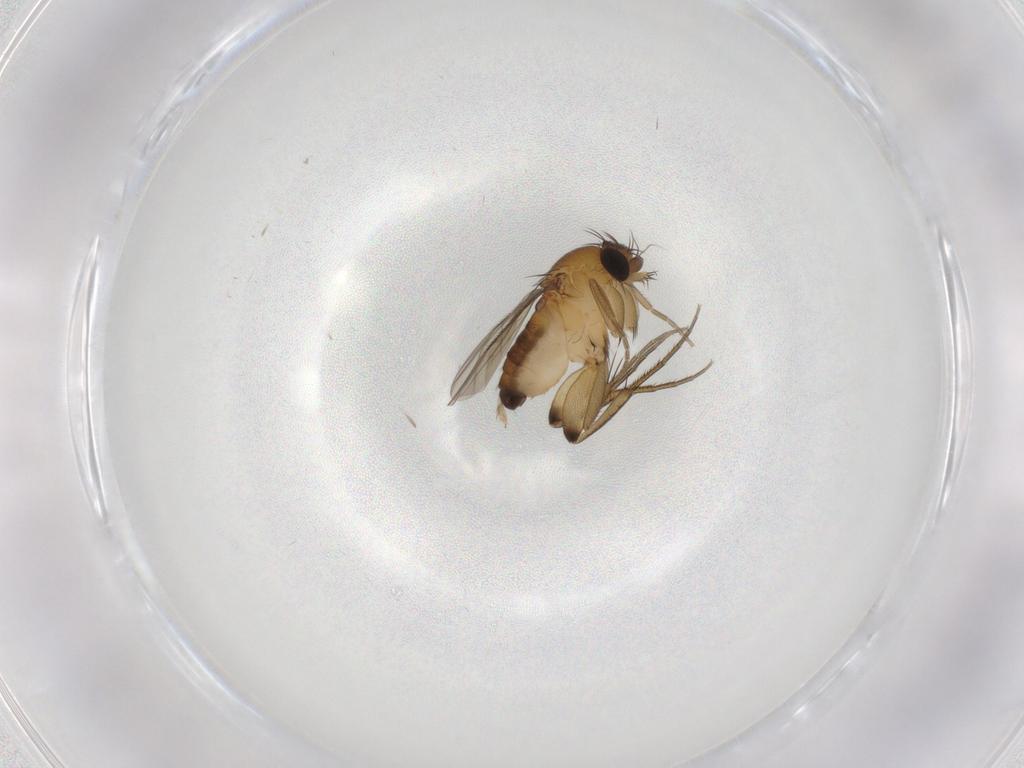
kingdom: Animalia
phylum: Arthropoda
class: Insecta
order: Diptera
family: Phoridae
